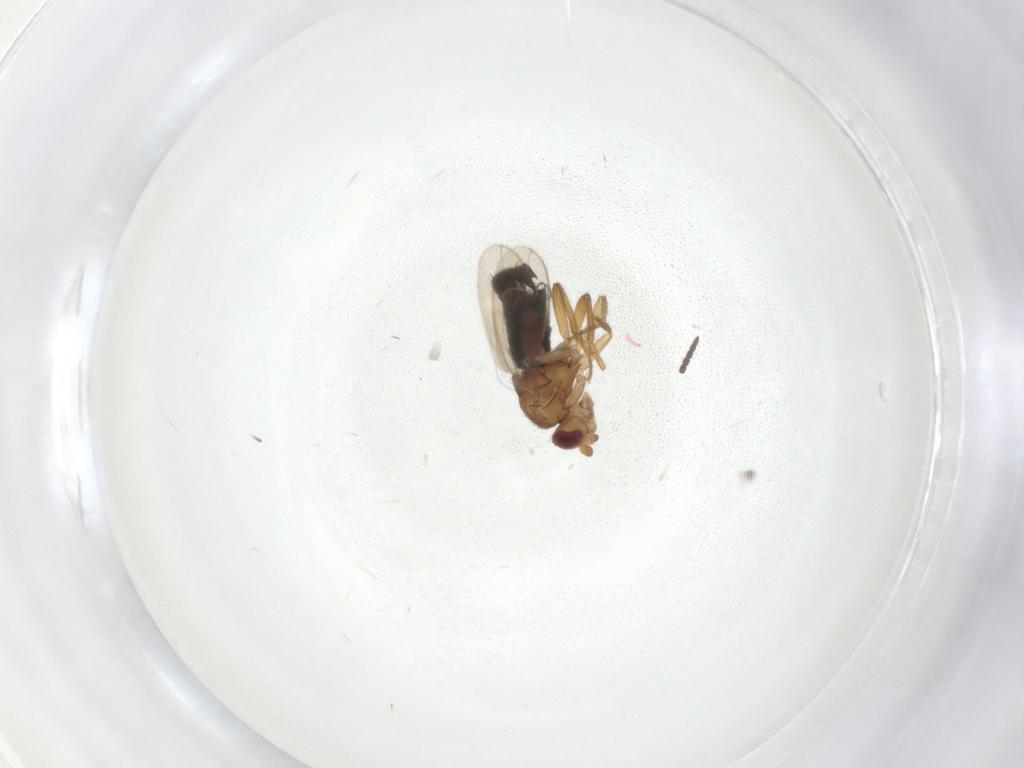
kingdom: Animalia
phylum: Arthropoda
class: Insecta
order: Diptera
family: Sphaeroceridae
